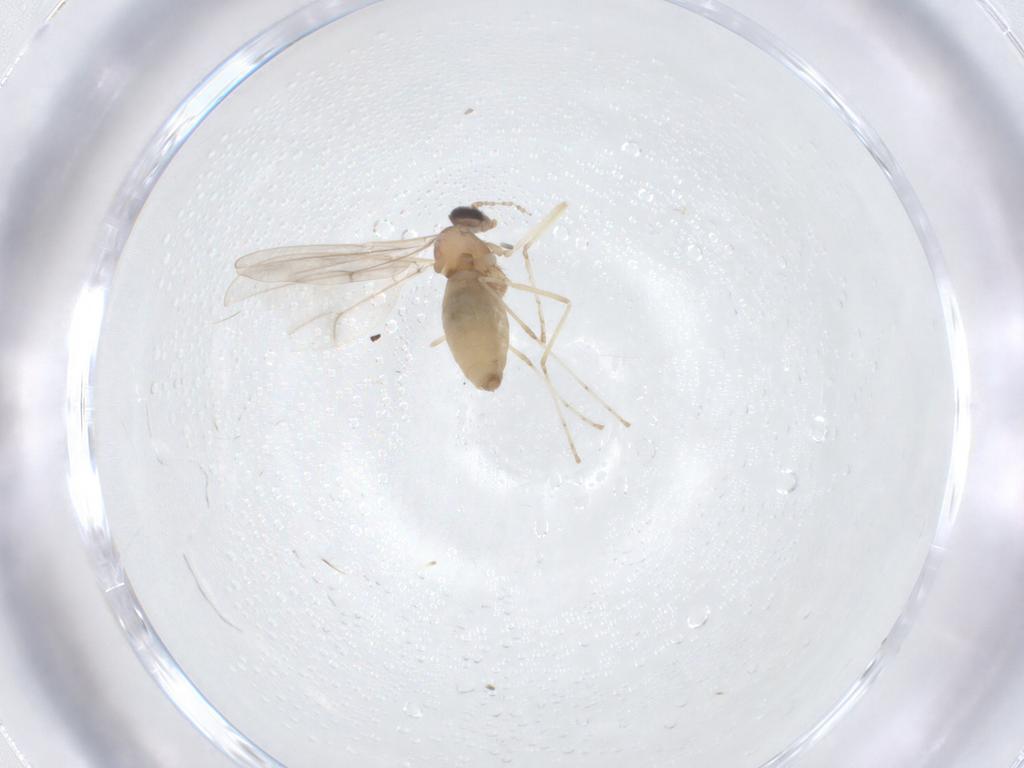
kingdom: Animalia
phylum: Arthropoda
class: Insecta
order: Diptera
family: Cecidomyiidae
